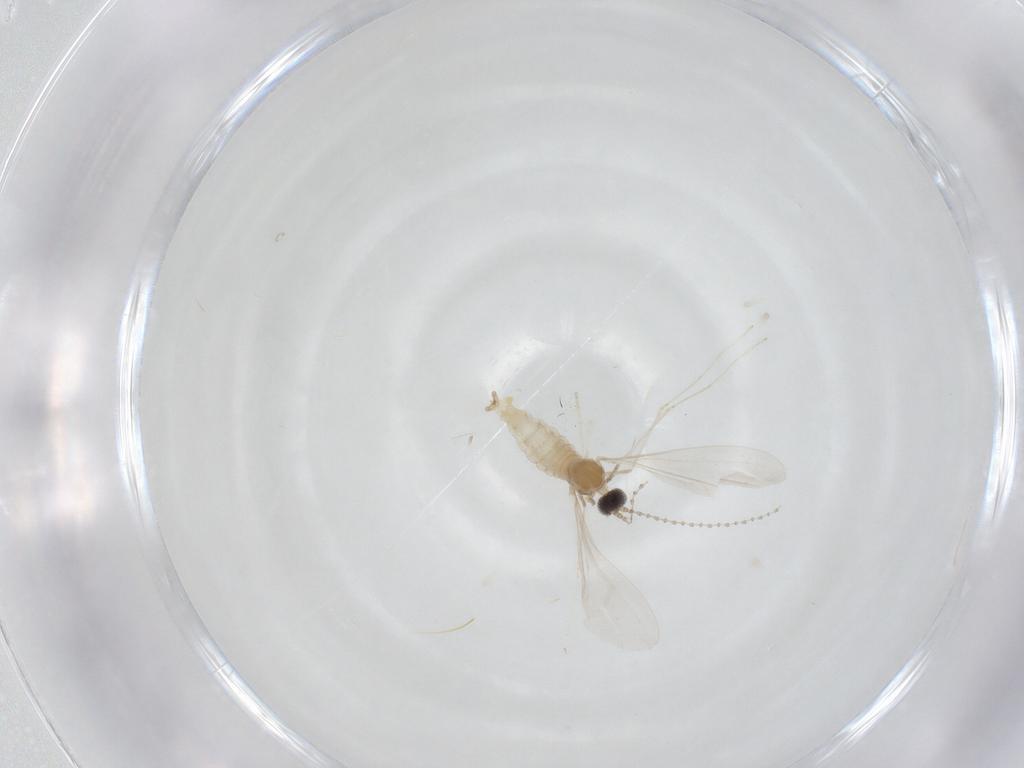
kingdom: Animalia
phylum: Arthropoda
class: Insecta
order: Diptera
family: Cecidomyiidae
